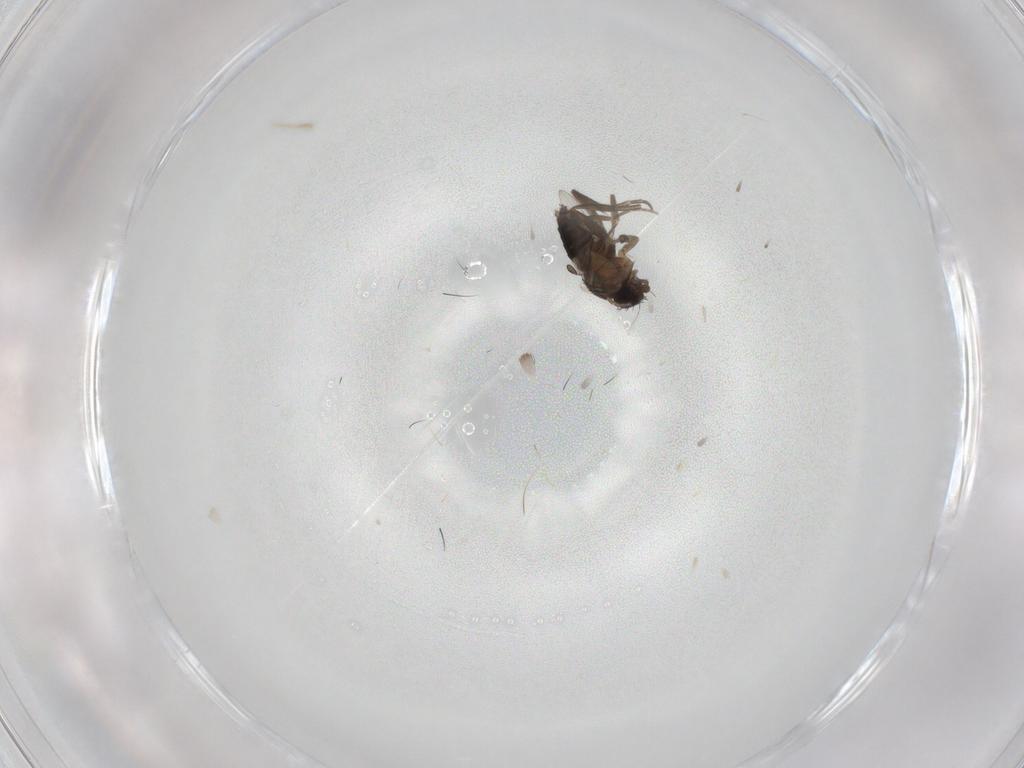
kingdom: Animalia
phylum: Arthropoda
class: Insecta
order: Diptera
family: Phoridae
